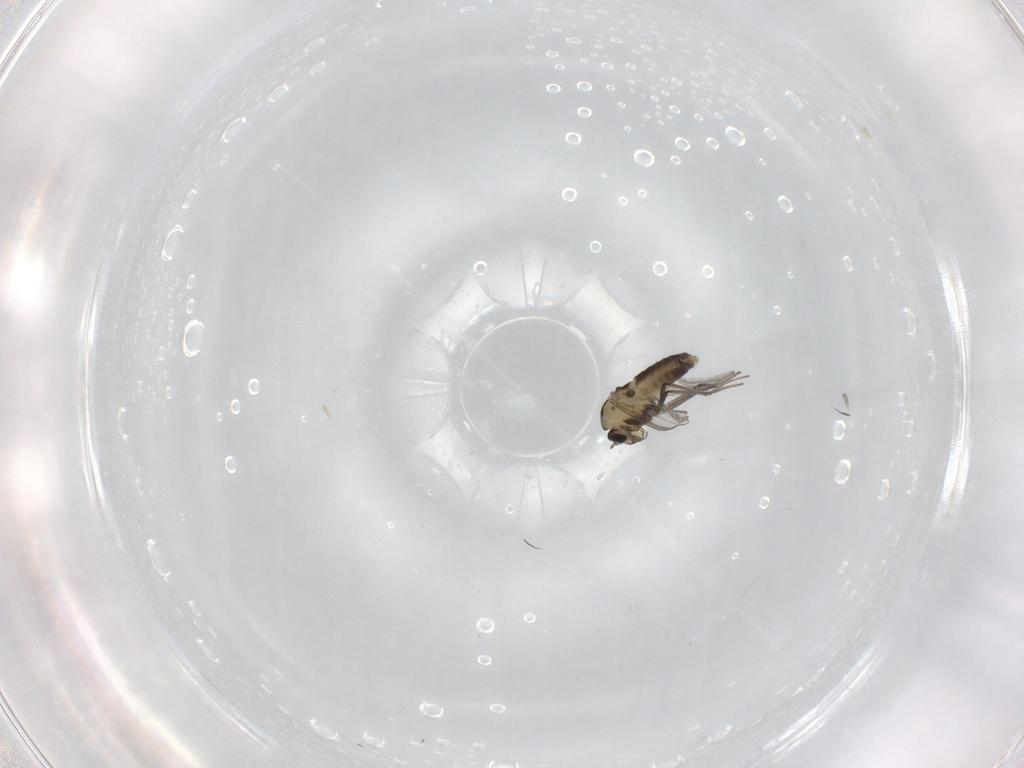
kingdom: Animalia
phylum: Arthropoda
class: Insecta
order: Diptera
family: Chironomidae
